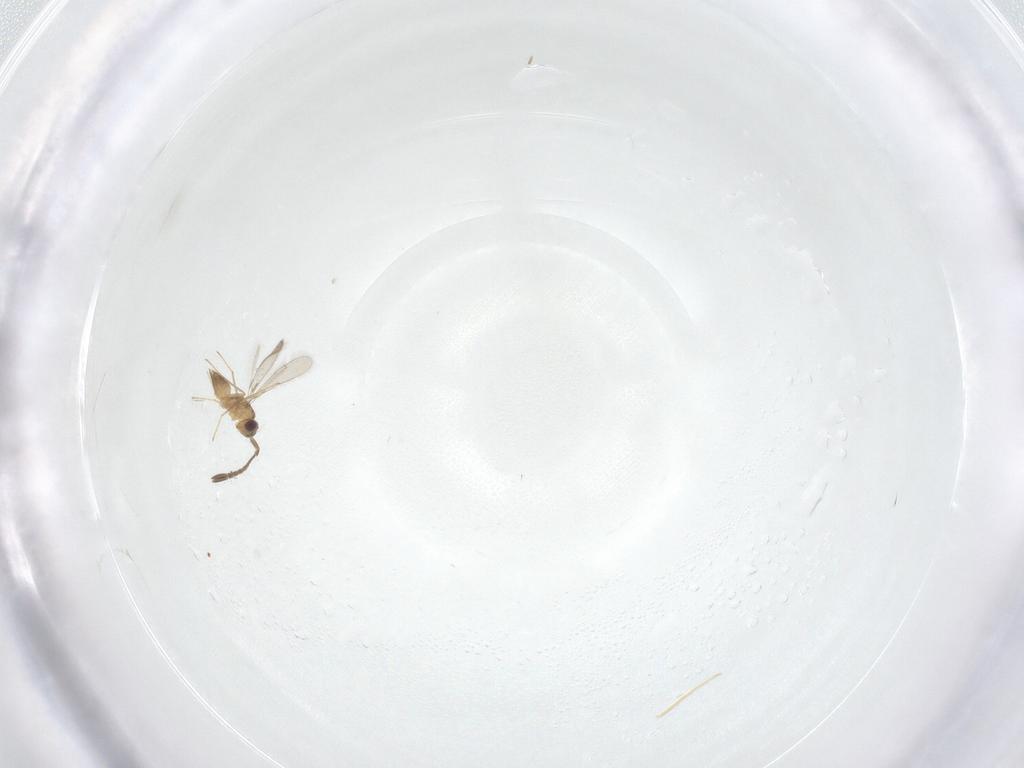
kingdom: Animalia
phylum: Arthropoda
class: Insecta
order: Hymenoptera
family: Mymaridae
